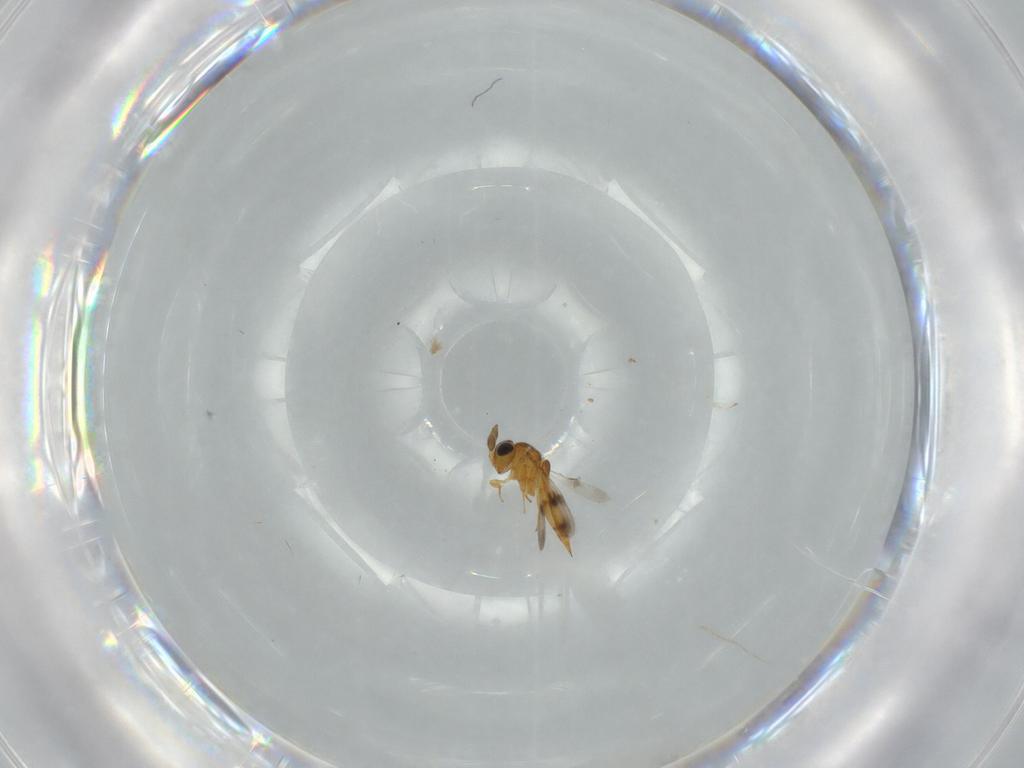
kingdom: Animalia
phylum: Arthropoda
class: Insecta
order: Hymenoptera
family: Scelionidae
